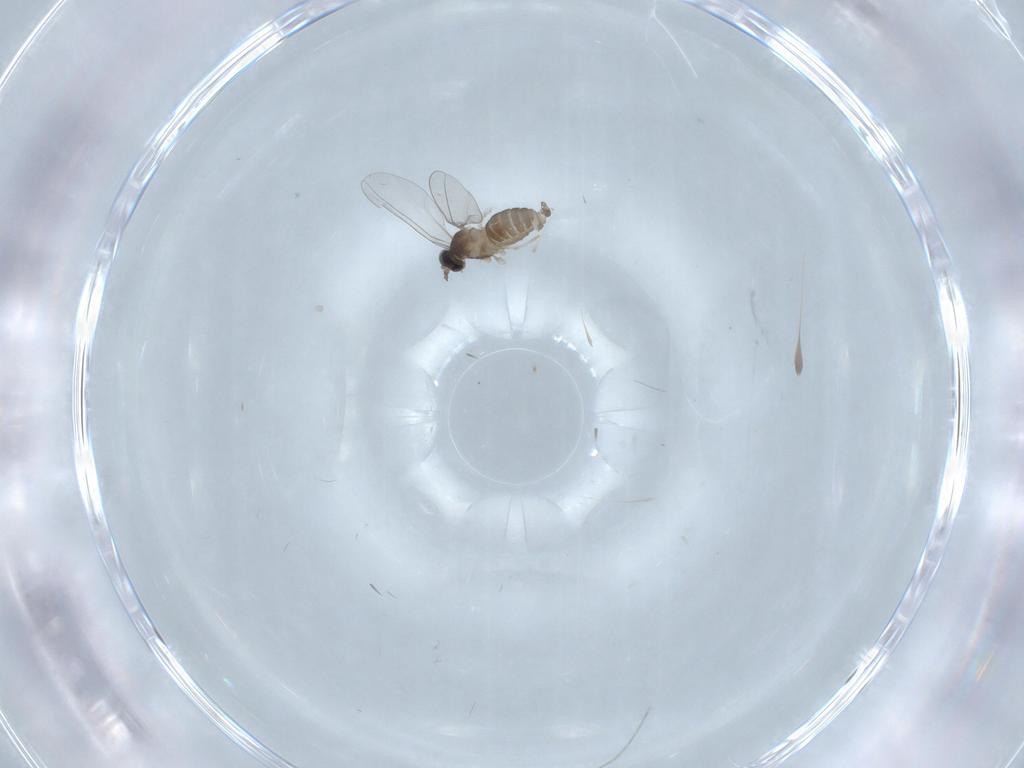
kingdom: Animalia
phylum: Arthropoda
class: Insecta
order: Diptera
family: Cecidomyiidae
